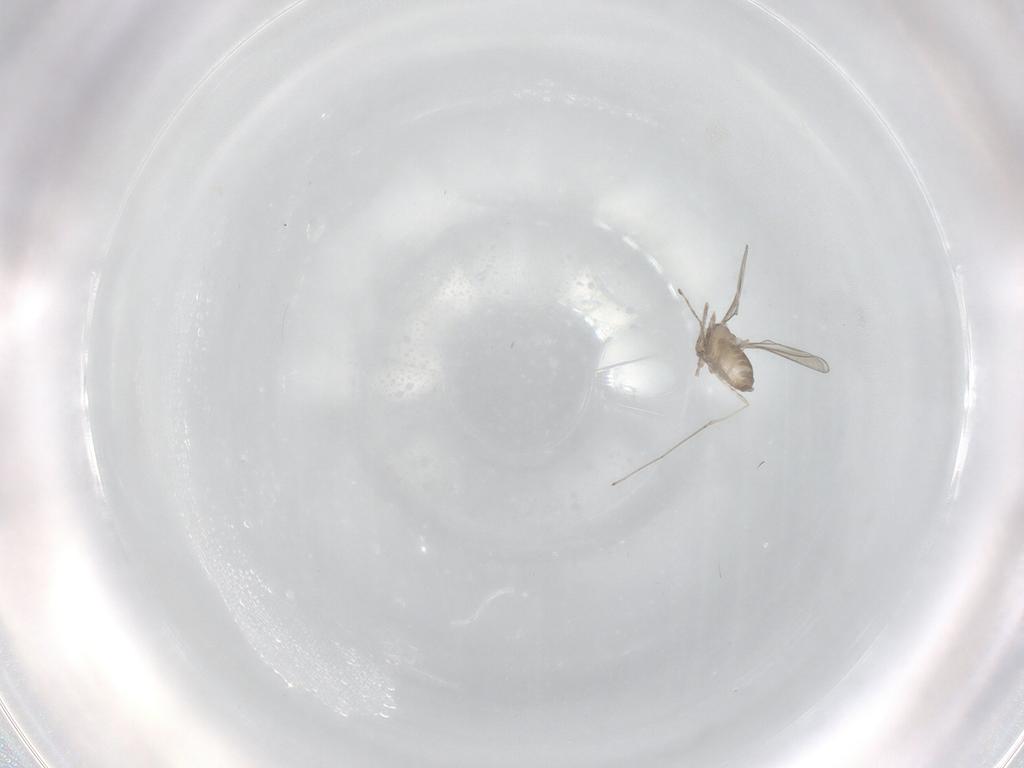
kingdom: Animalia
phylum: Arthropoda
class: Insecta
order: Diptera
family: Cecidomyiidae
